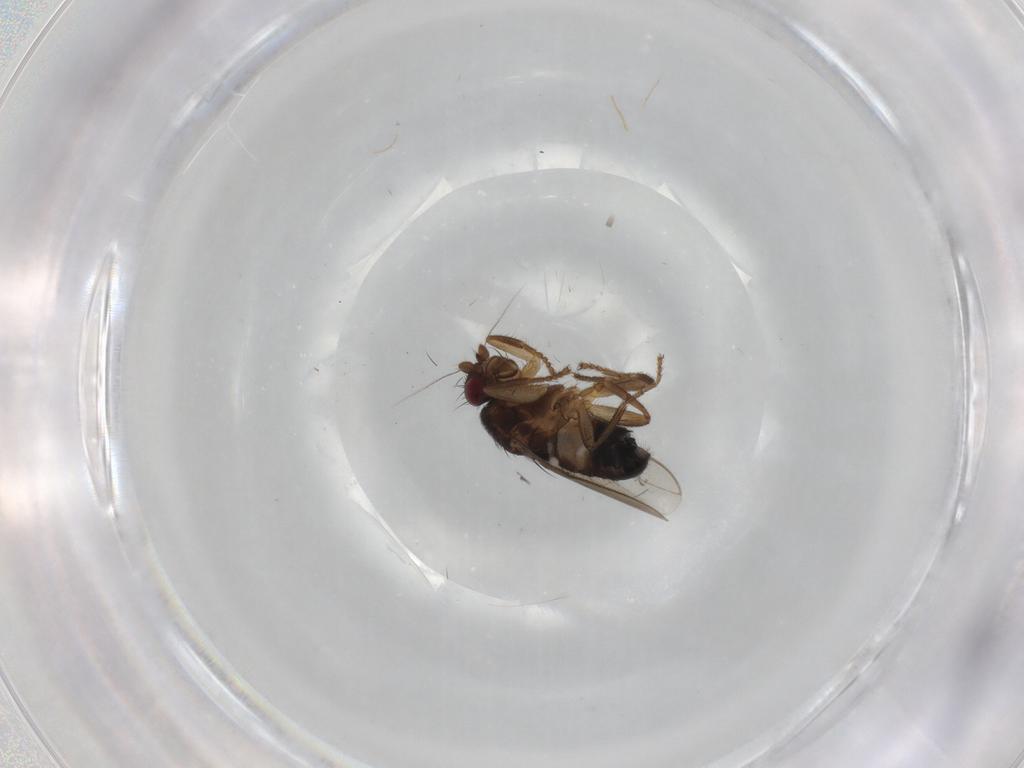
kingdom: Animalia
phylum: Arthropoda
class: Insecta
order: Diptera
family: Sphaeroceridae
